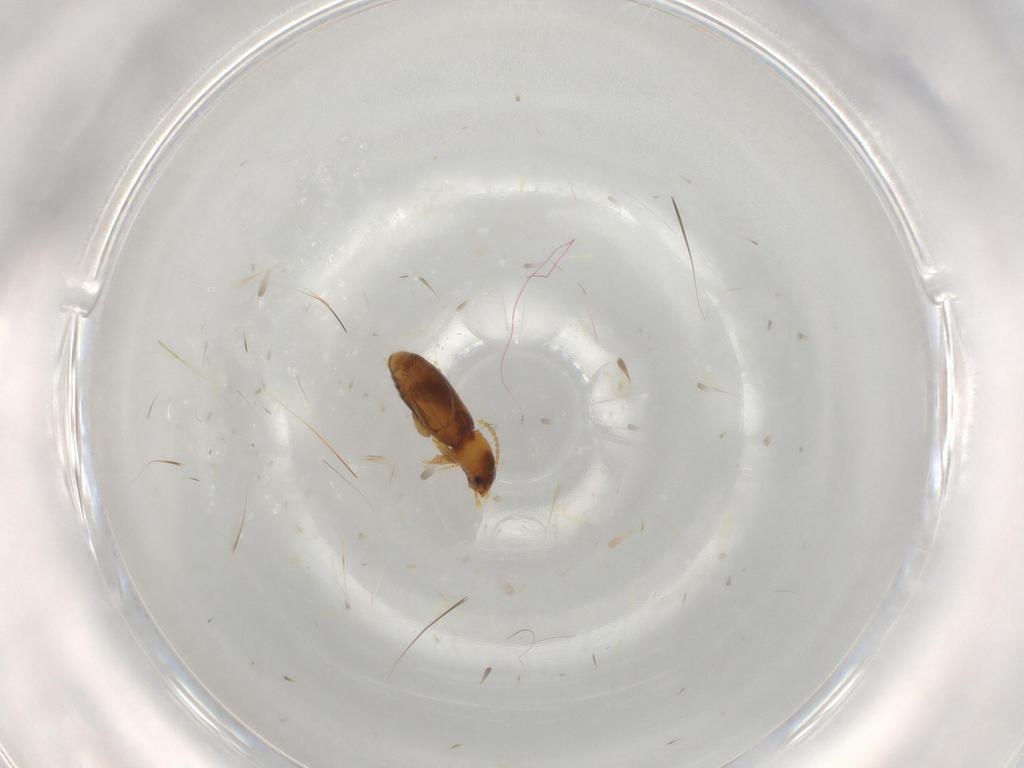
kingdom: Animalia
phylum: Arthropoda
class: Insecta
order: Coleoptera
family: Carabidae
